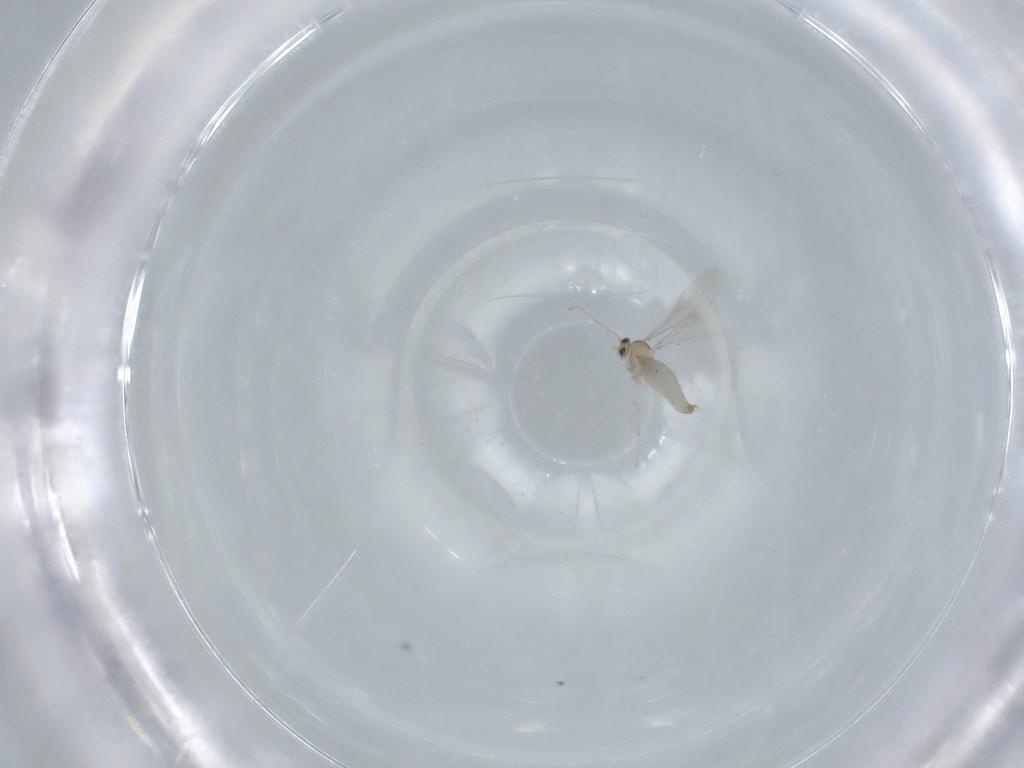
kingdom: Animalia
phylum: Arthropoda
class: Insecta
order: Diptera
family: Cecidomyiidae
